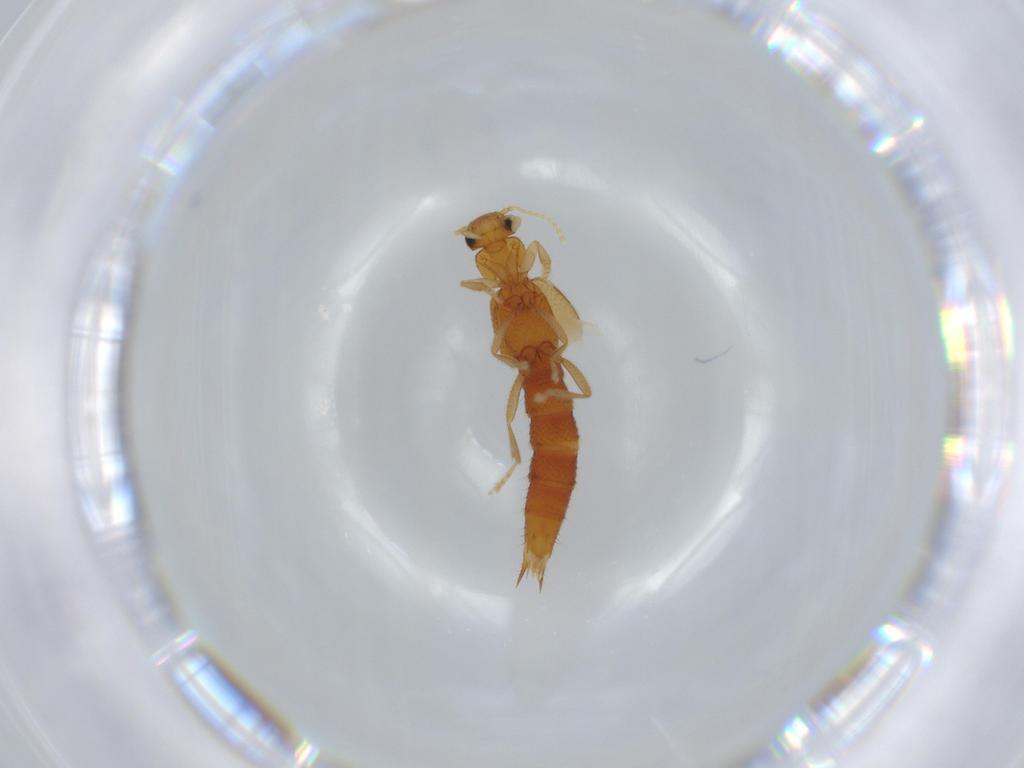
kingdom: Animalia
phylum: Arthropoda
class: Insecta
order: Coleoptera
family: Staphylinidae
